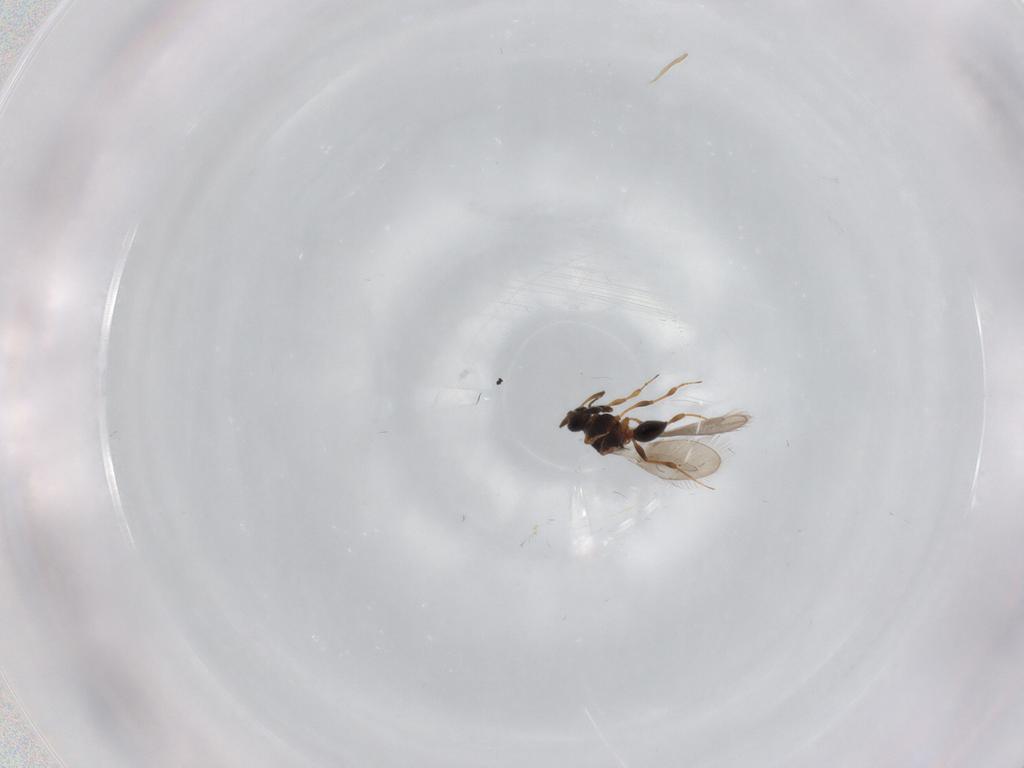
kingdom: Animalia
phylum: Arthropoda
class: Insecta
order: Hymenoptera
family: Platygastridae
